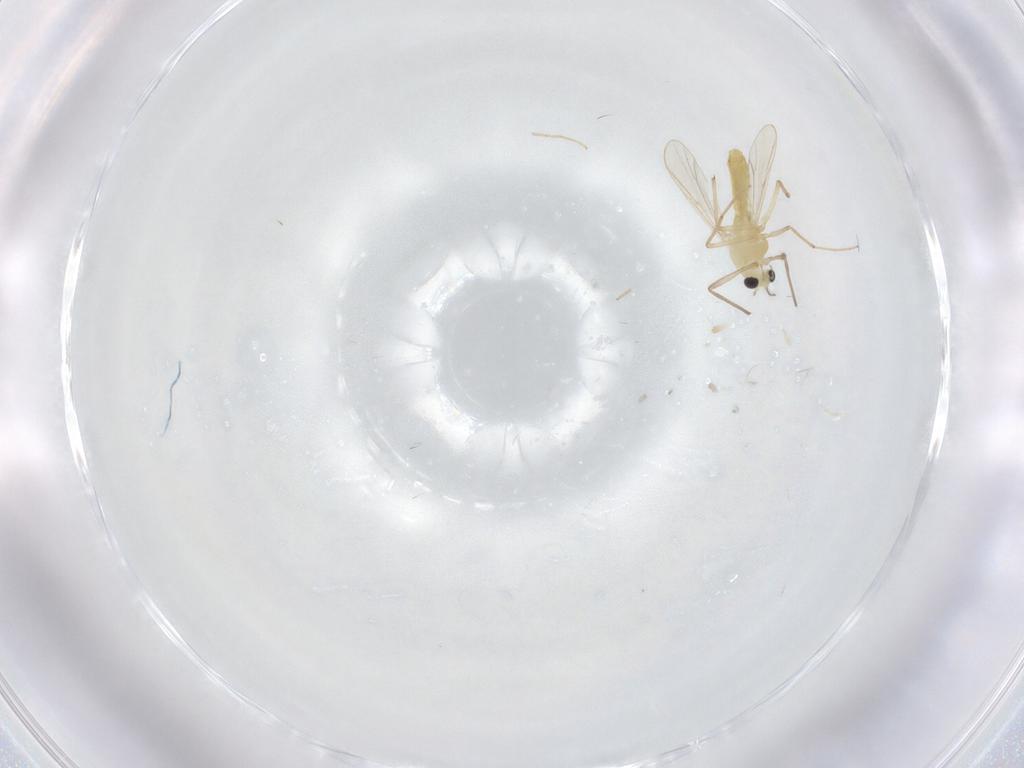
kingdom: Animalia
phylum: Arthropoda
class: Insecta
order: Diptera
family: Chironomidae
